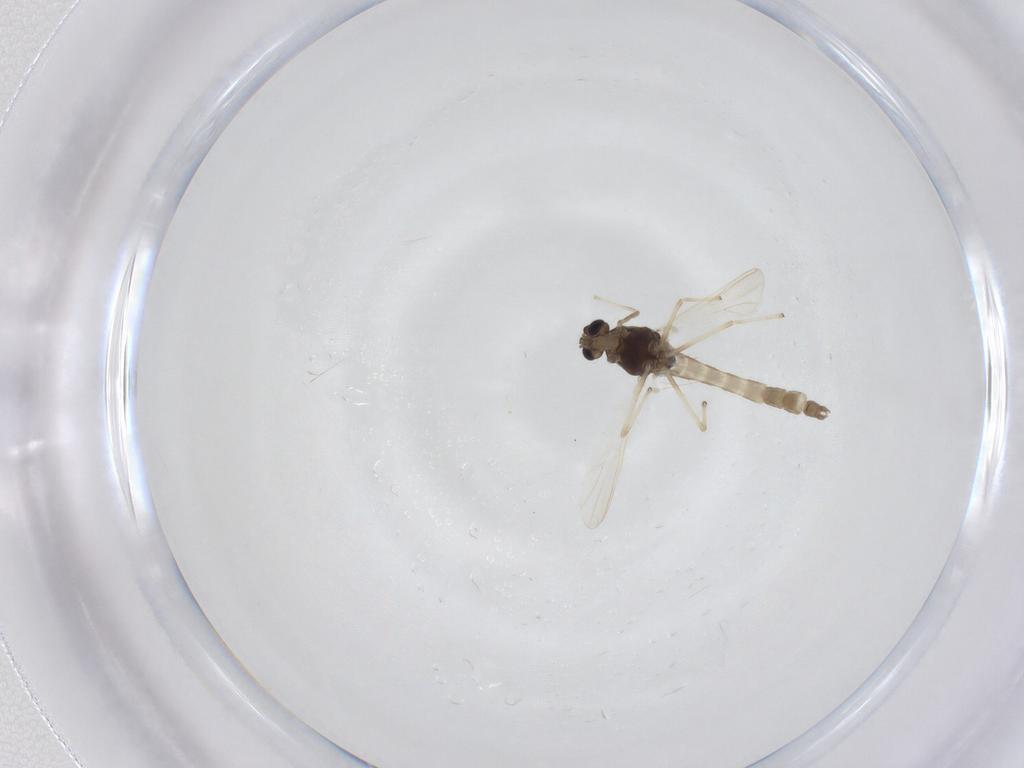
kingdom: Animalia
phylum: Arthropoda
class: Insecta
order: Diptera
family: Chironomidae
